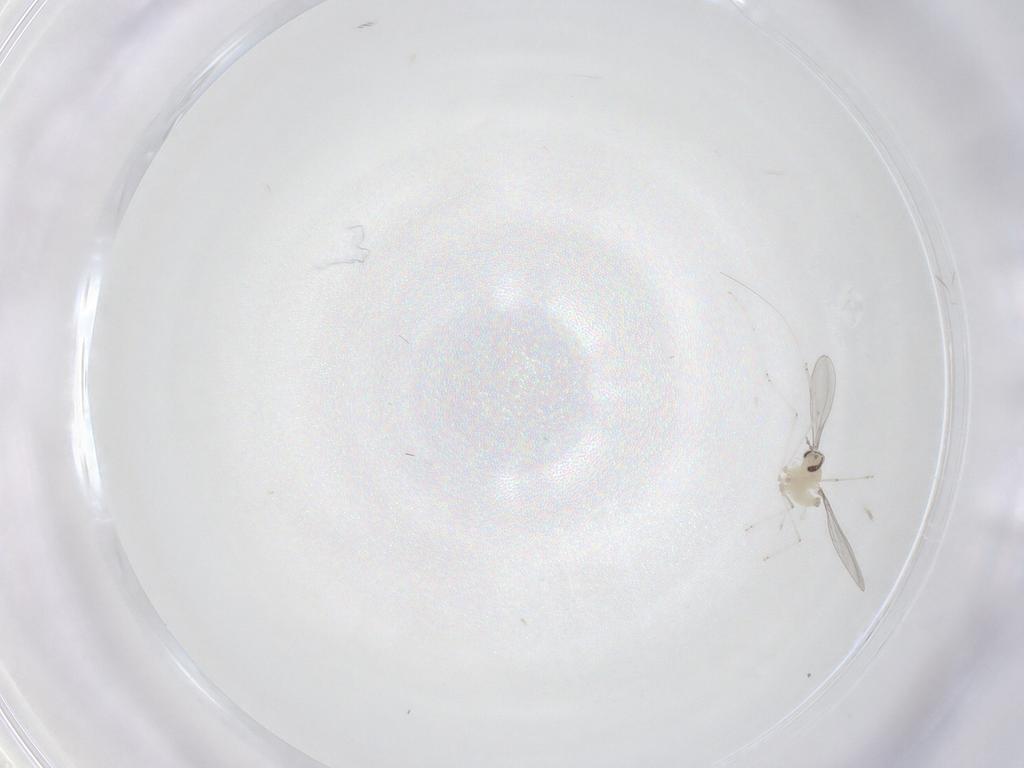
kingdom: Animalia
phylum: Arthropoda
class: Insecta
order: Diptera
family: Cecidomyiidae
